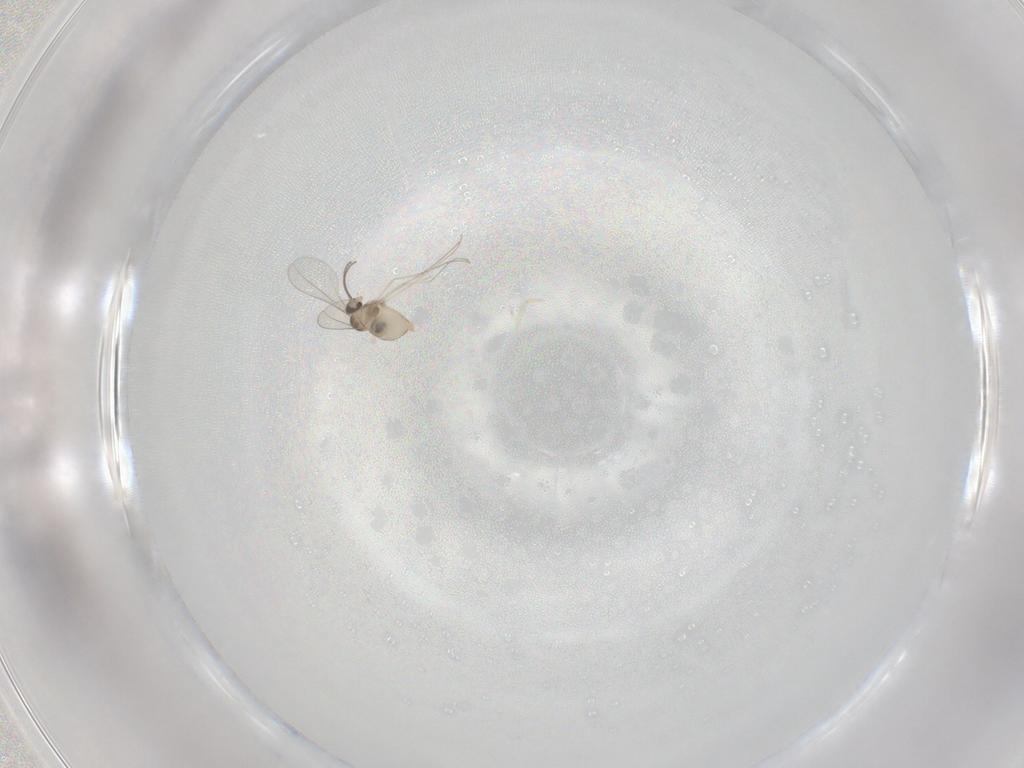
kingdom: Animalia
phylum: Arthropoda
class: Insecta
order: Diptera
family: Cecidomyiidae
